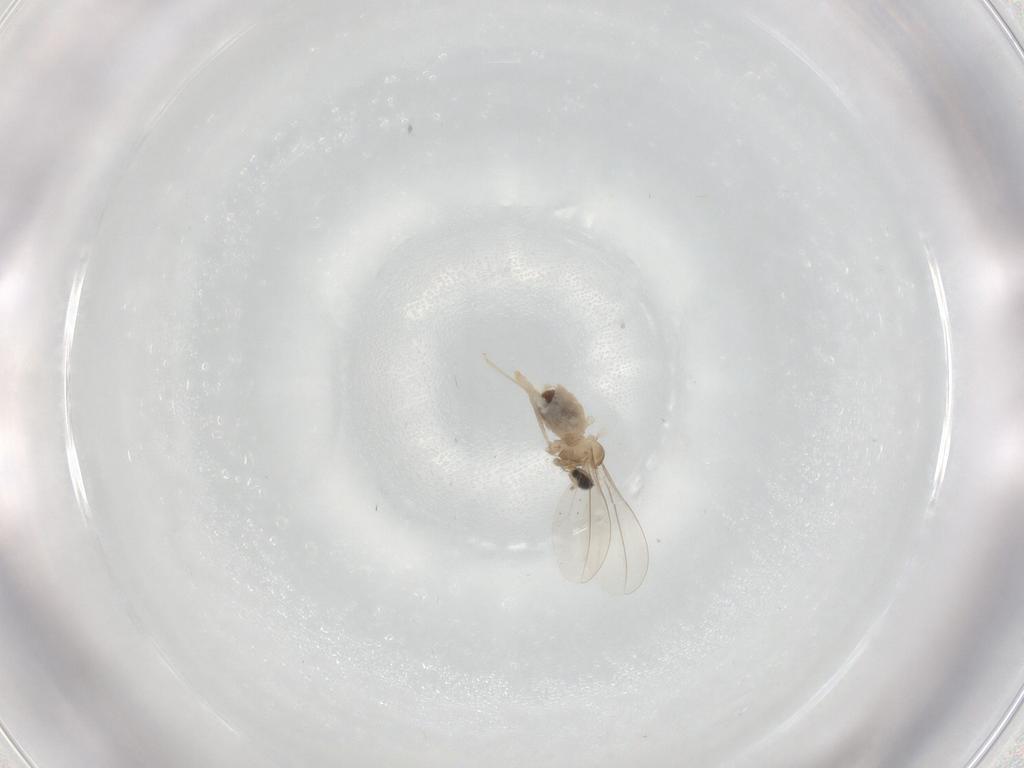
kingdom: Animalia
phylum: Arthropoda
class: Insecta
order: Diptera
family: Cecidomyiidae
